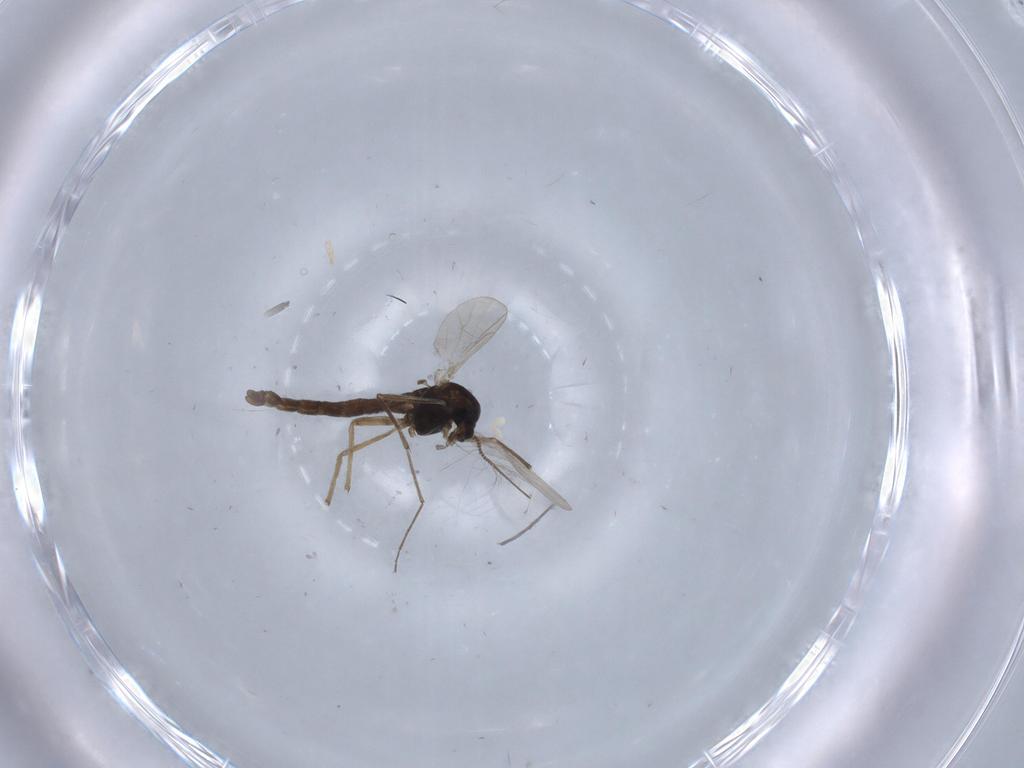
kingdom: Animalia
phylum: Arthropoda
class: Insecta
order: Diptera
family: Chironomidae
